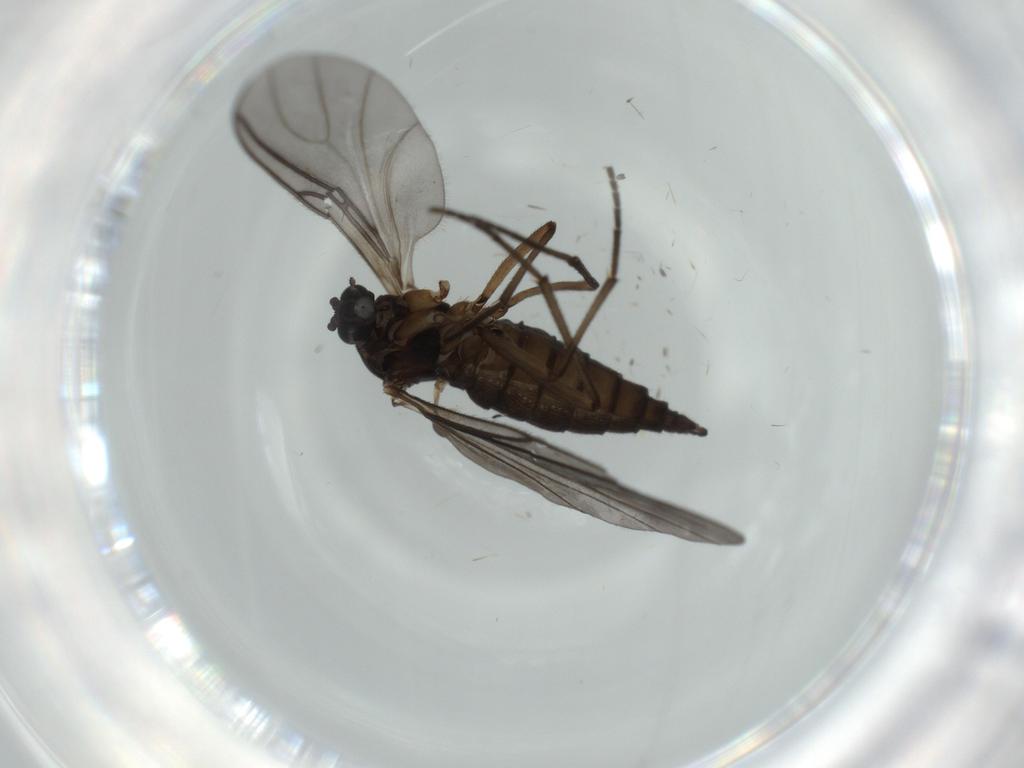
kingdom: Animalia
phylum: Arthropoda
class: Insecta
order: Diptera
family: Sciaridae
